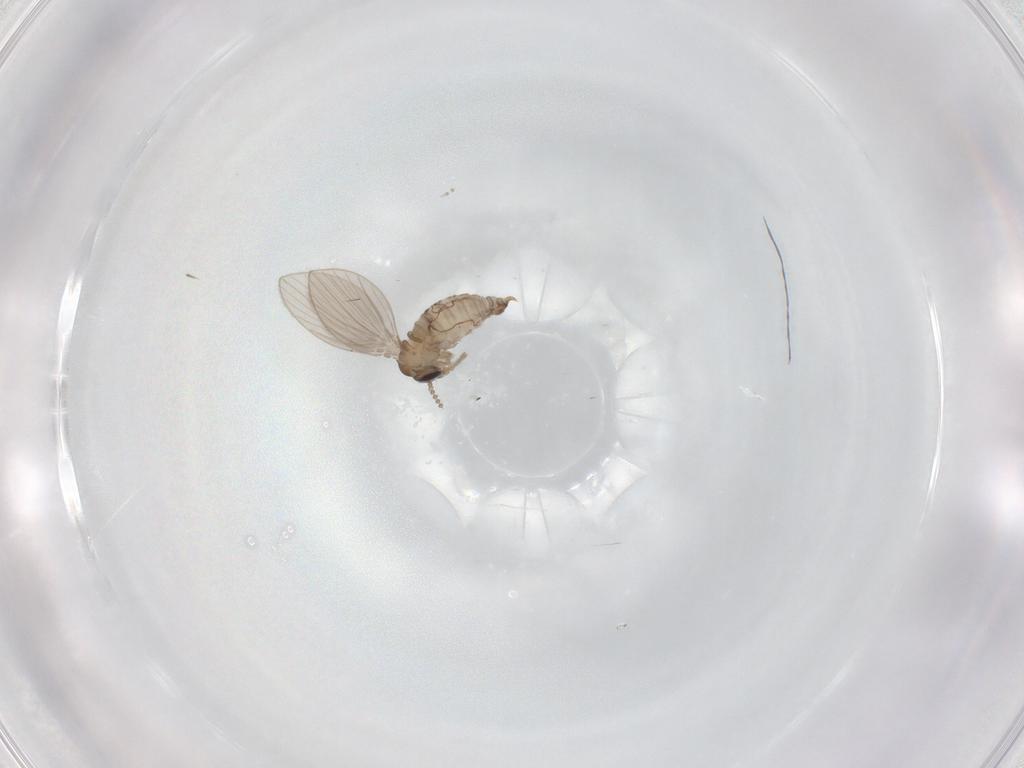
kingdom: Animalia
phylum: Arthropoda
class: Insecta
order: Diptera
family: Psychodidae
